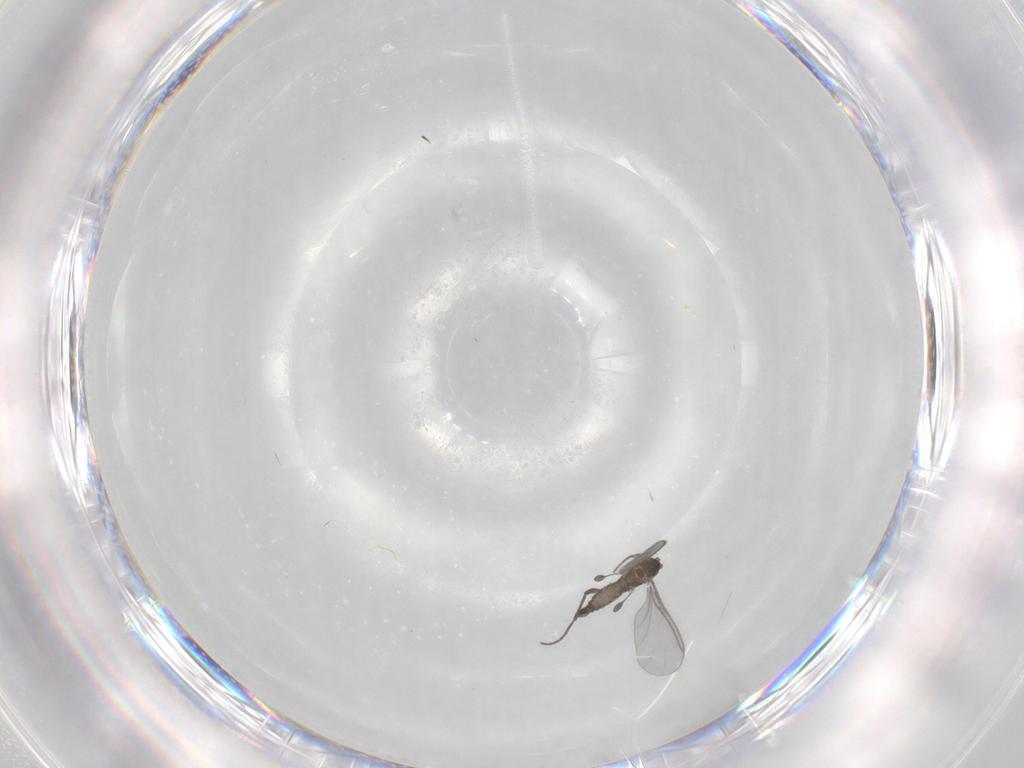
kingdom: Animalia
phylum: Arthropoda
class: Insecta
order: Diptera
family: Sciaridae
